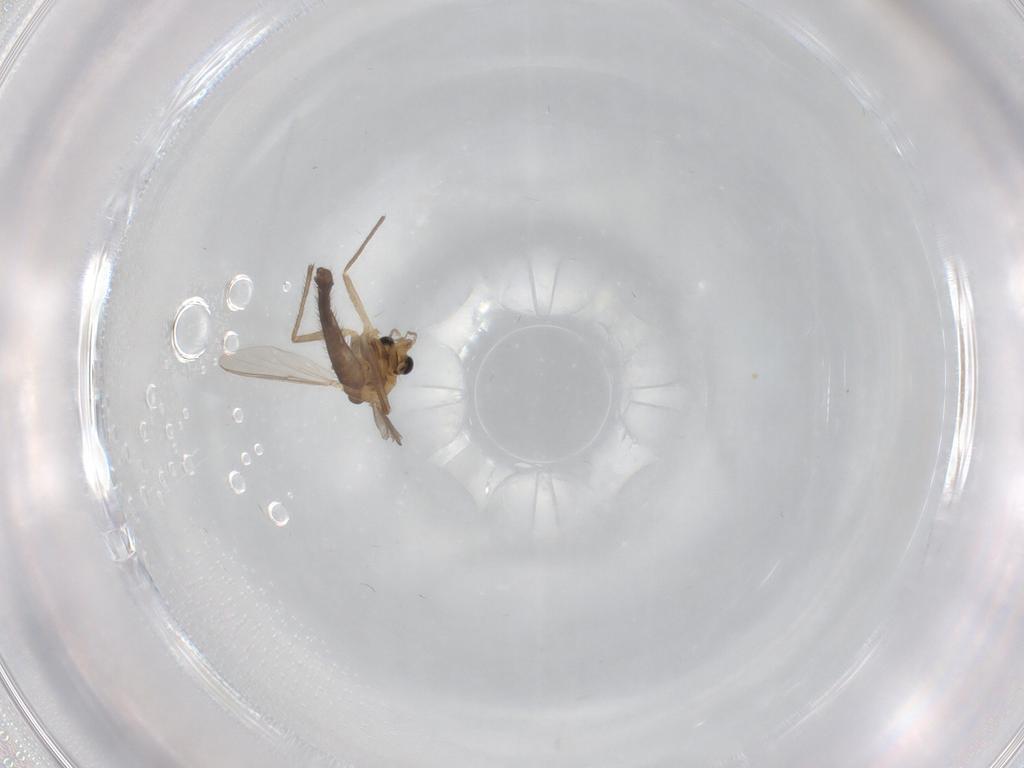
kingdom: Animalia
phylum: Arthropoda
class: Insecta
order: Diptera
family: Chironomidae
